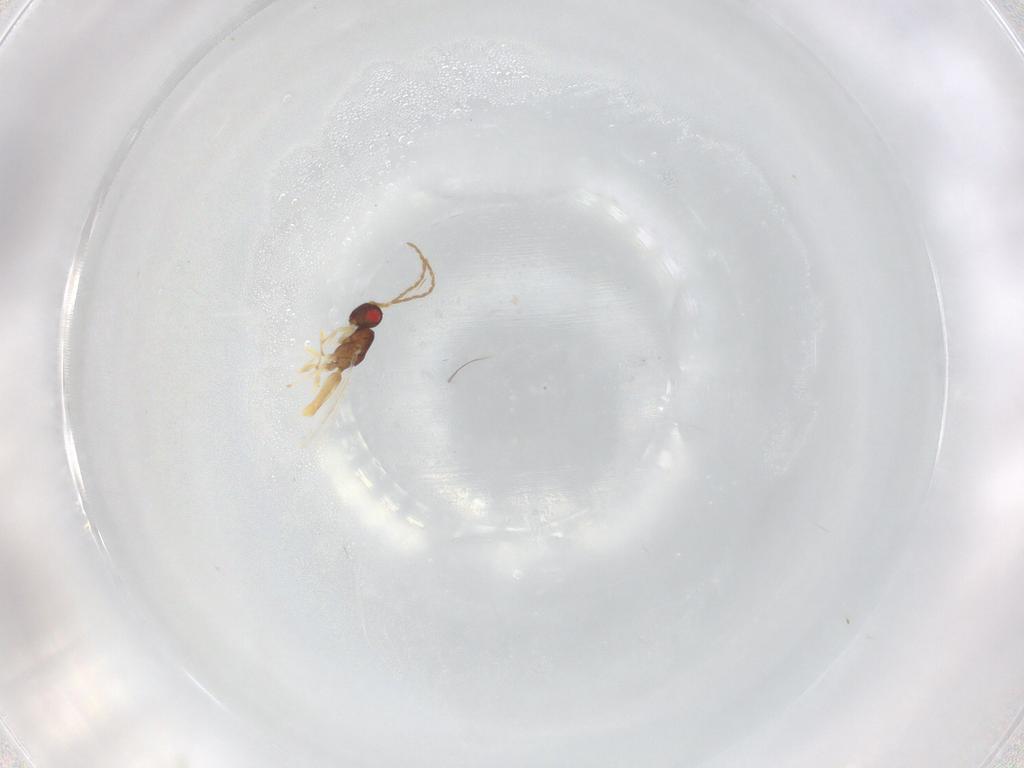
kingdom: Animalia
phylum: Arthropoda
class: Insecta
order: Hymenoptera
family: Pteromalidae
